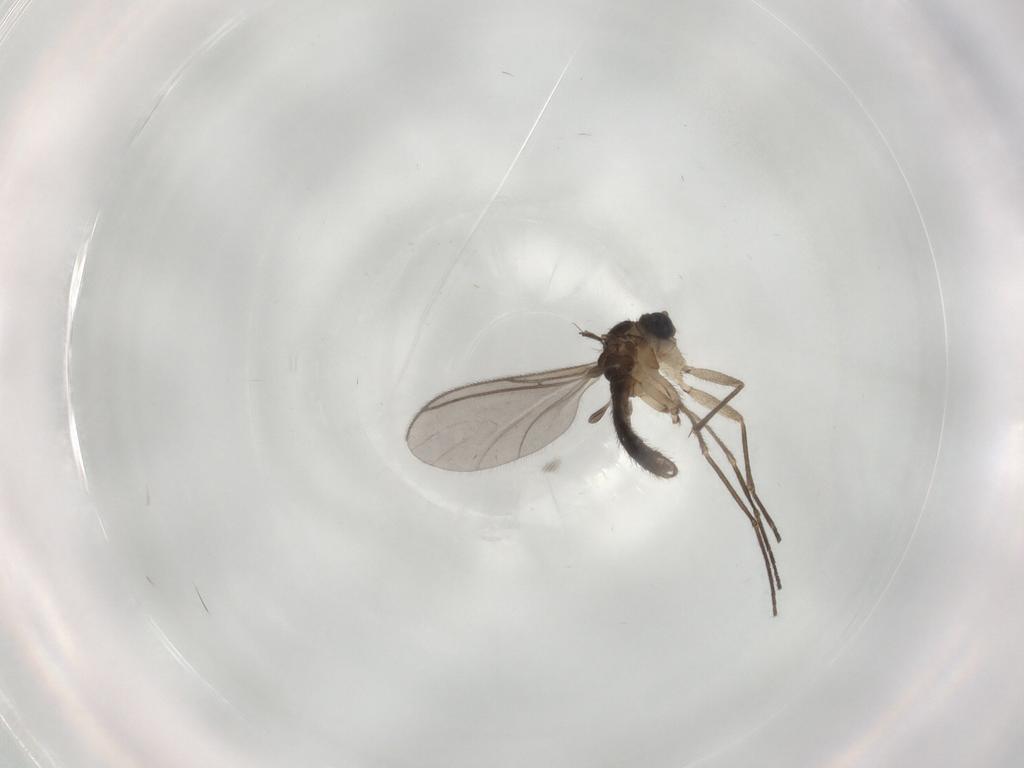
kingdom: Animalia
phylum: Arthropoda
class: Insecta
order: Diptera
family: Sciaridae
